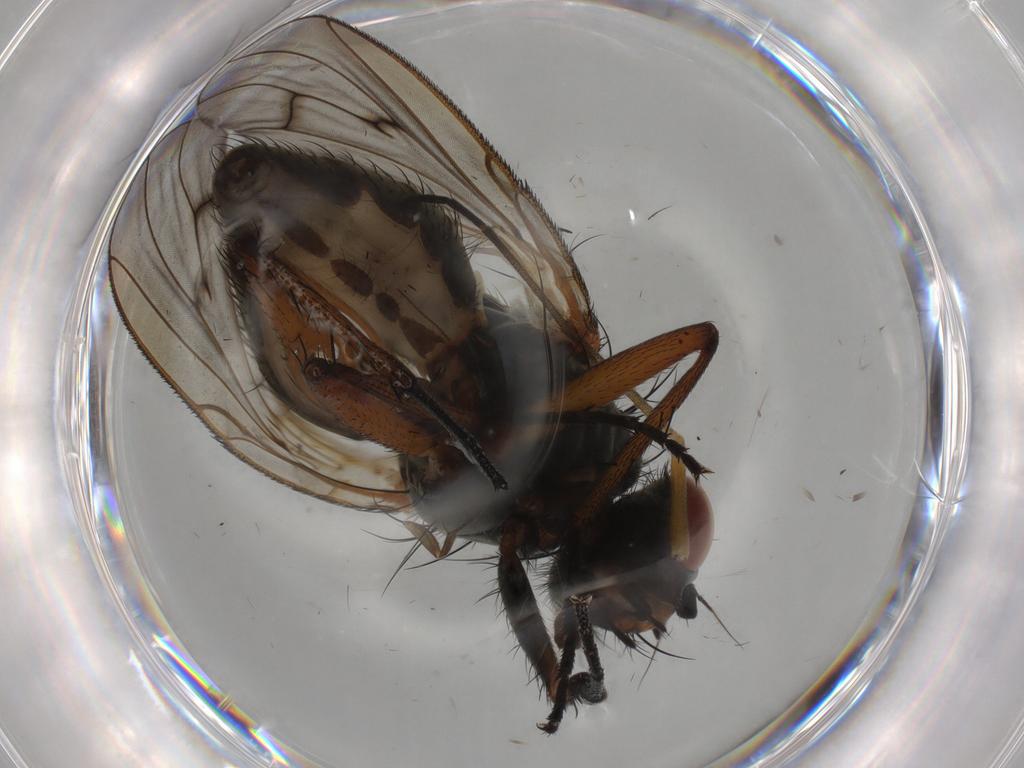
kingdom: Animalia
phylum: Arthropoda
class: Insecta
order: Diptera
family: Anthomyiidae
